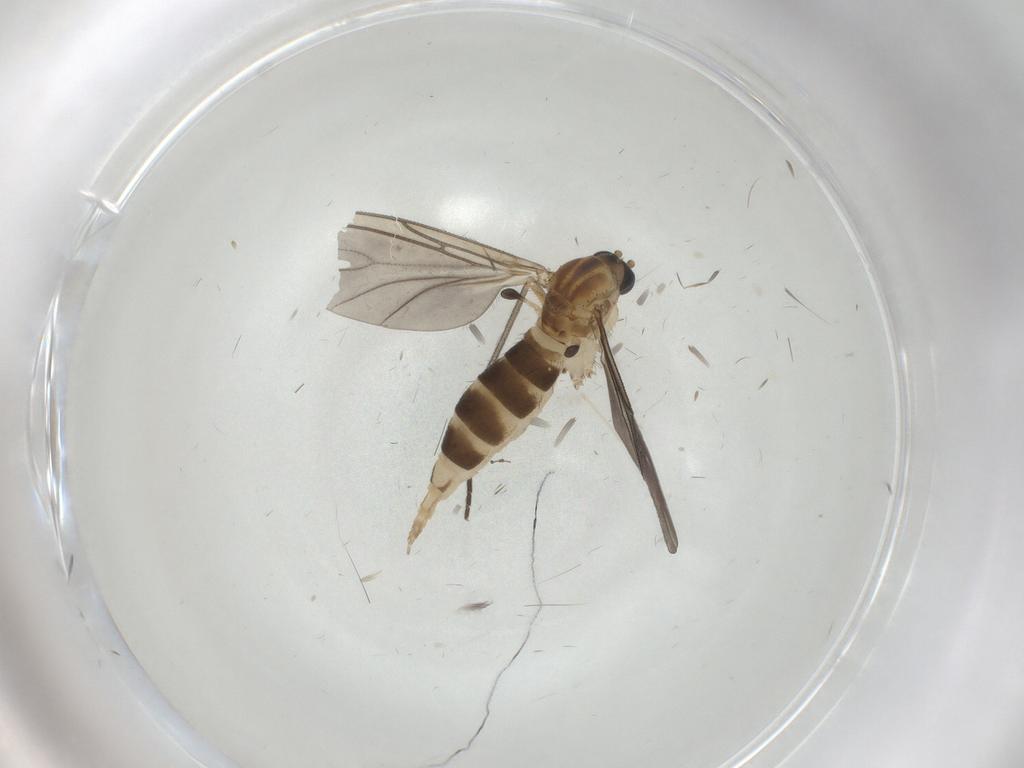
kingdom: Animalia
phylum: Arthropoda
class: Insecta
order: Diptera
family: Sciaridae
